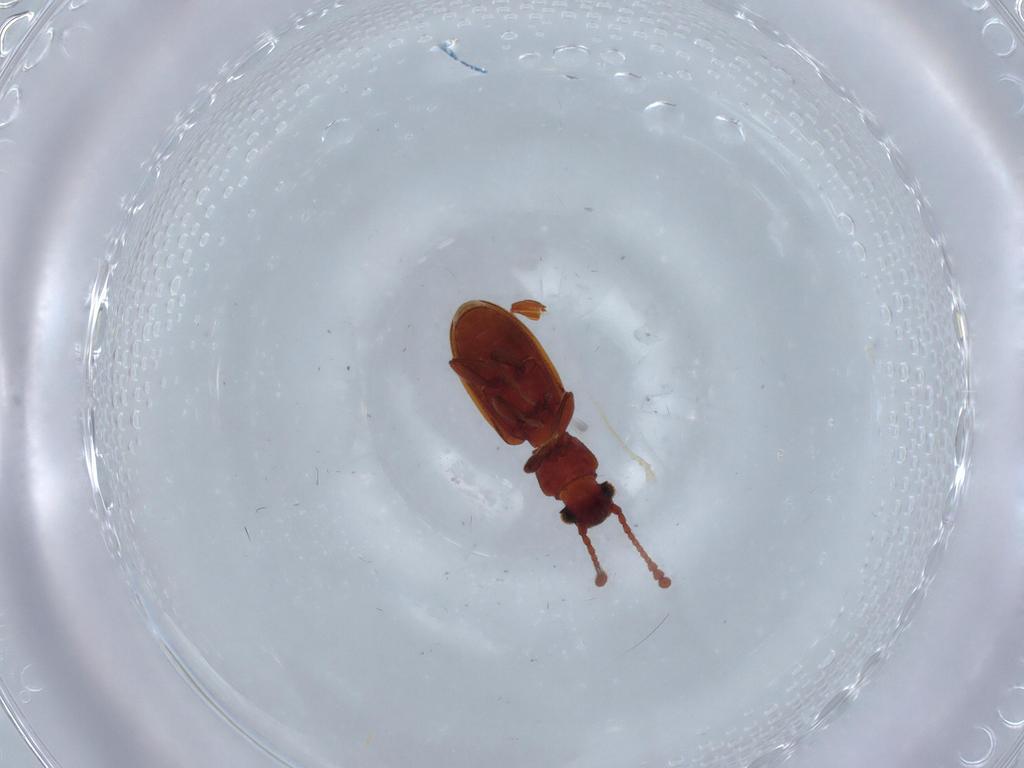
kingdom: Animalia
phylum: Arthropoda
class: Insecta
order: Coleoptera
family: Silvanidae
